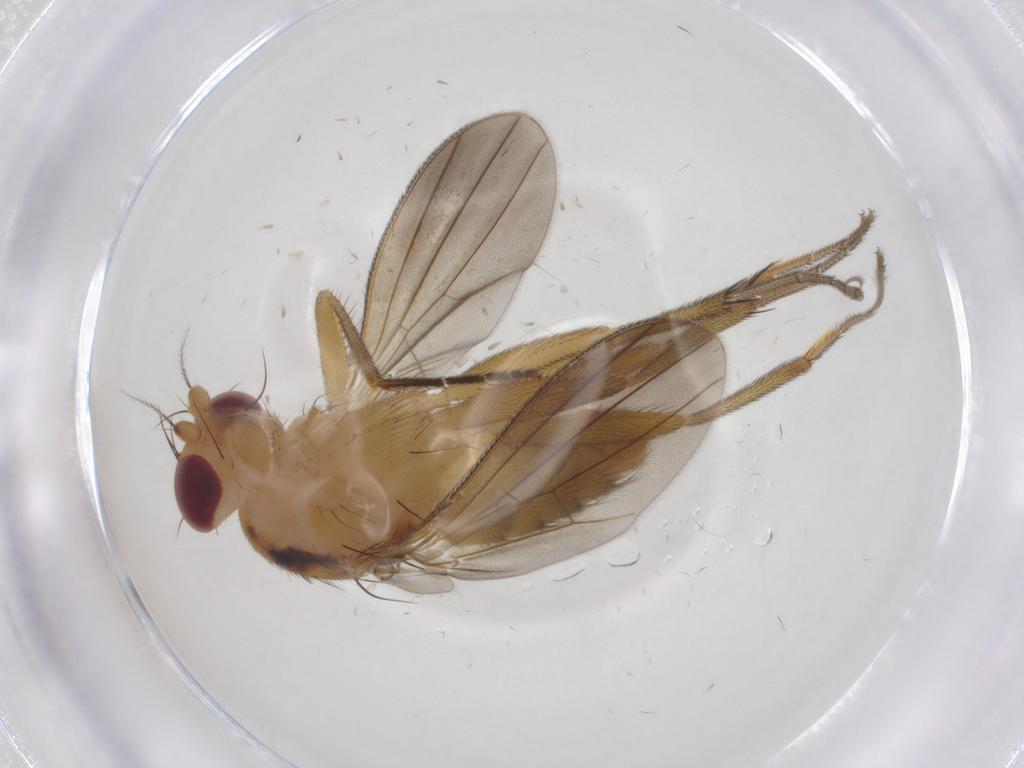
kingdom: Animalia
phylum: Arthropoda
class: Insecta
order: Diptera
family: Clusiidae
